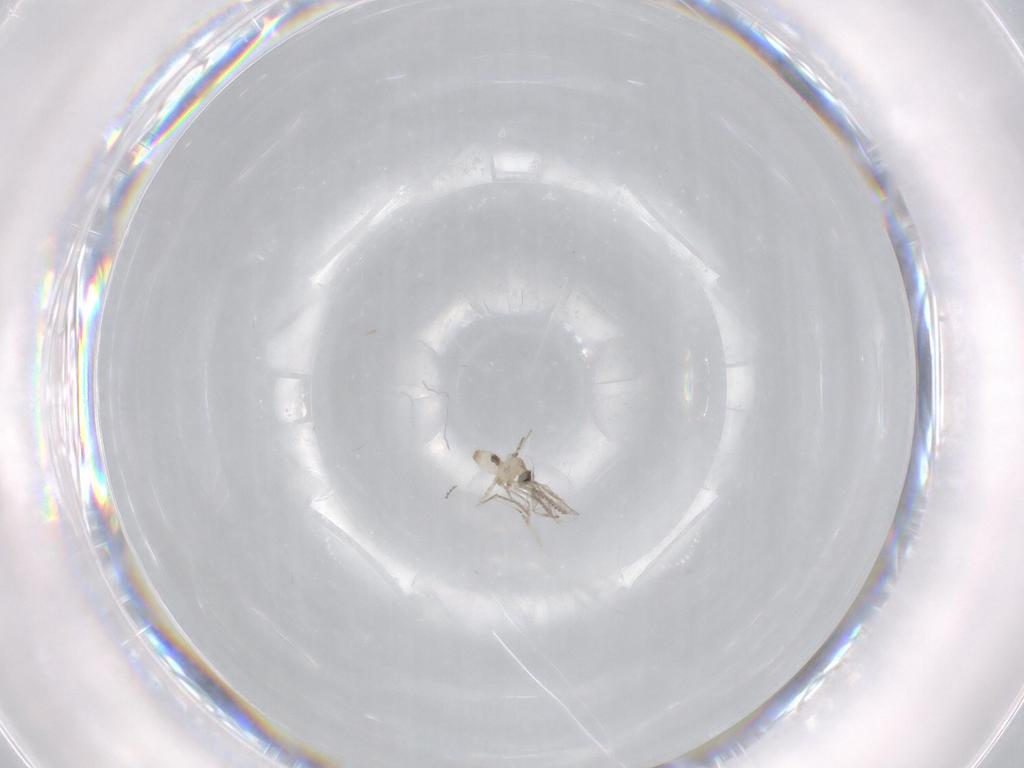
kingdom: Animalia
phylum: Arthropoda
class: Insecta
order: Diptera
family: Cecidomyiidae
